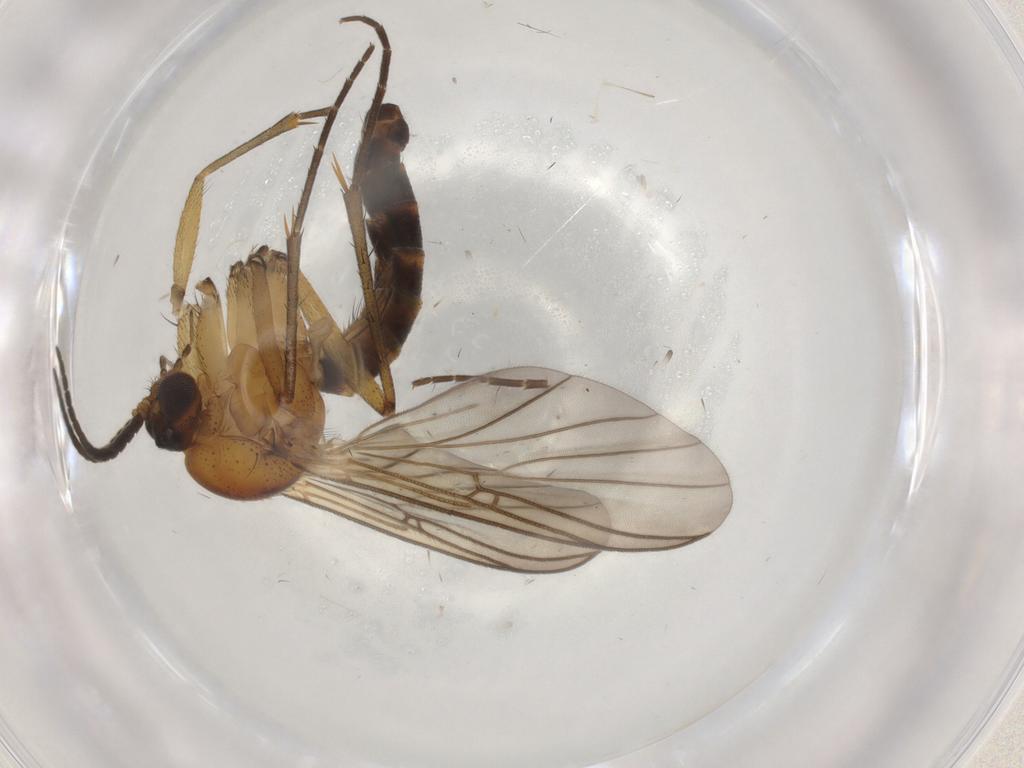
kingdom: Animalia
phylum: Arthropoda
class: Insecta
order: Diptera
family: Mycetophilidae
